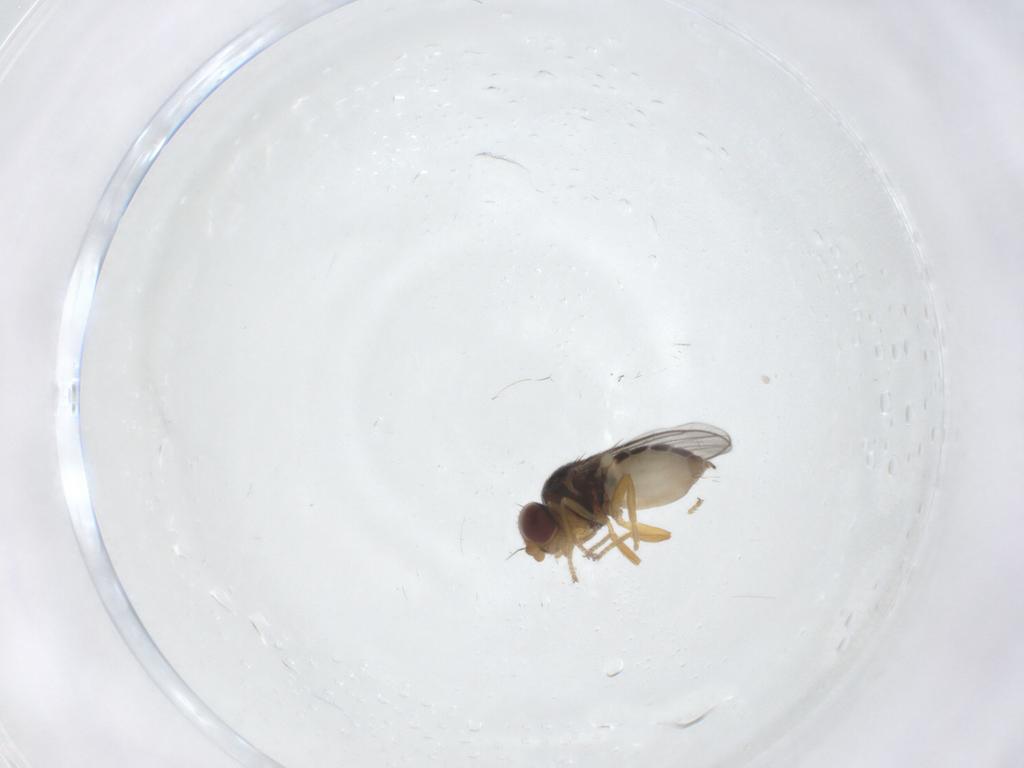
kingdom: Animalia
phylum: Arthropoda
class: Insecta
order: Diptera
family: Chloropidae
